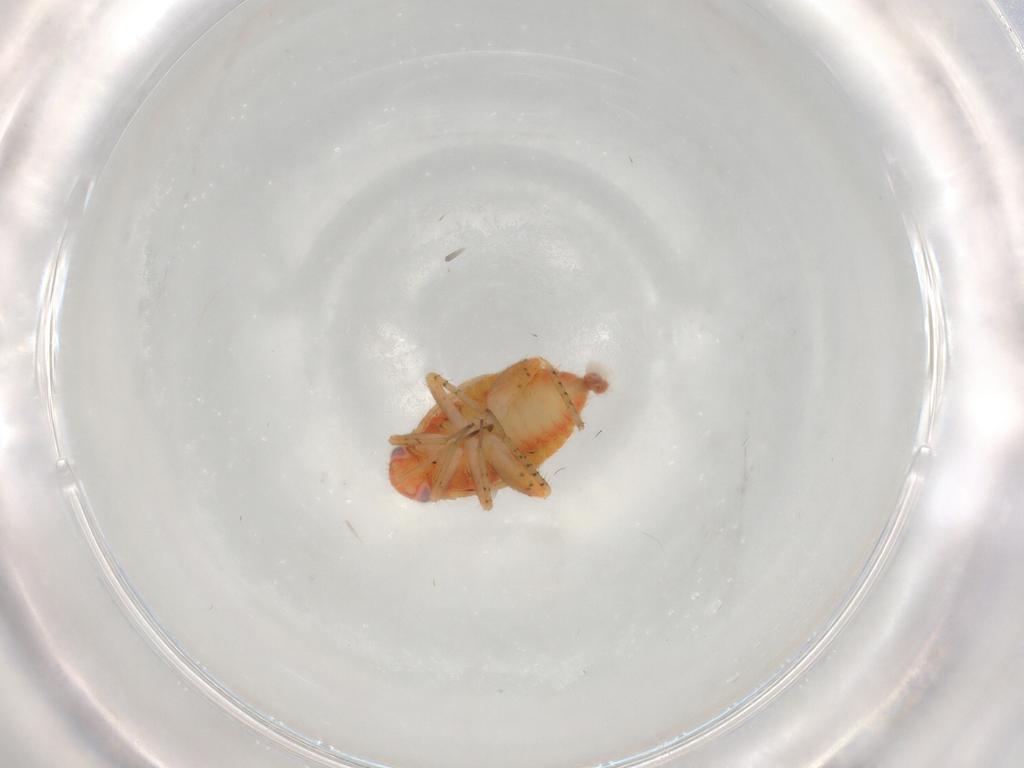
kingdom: Animalia
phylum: Arthropoda
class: Insecta
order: Hemiptera
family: Miridae
